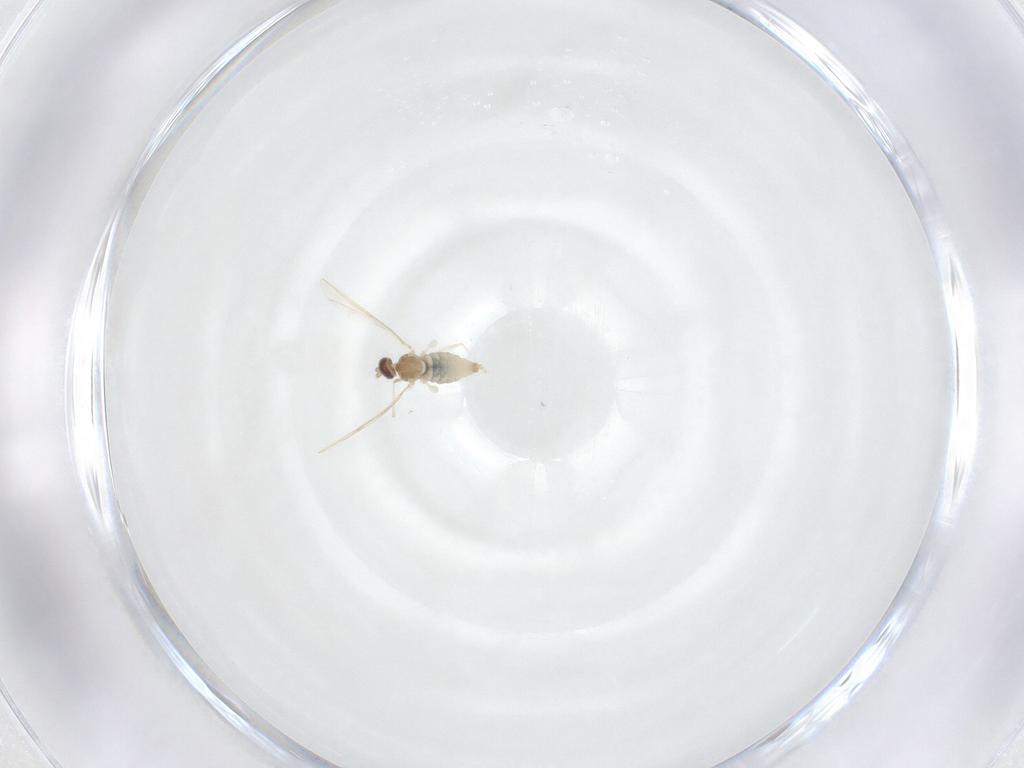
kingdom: Animalia
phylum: Arthropoda
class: Insecta
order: Diptera
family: Cecidomyiidae
